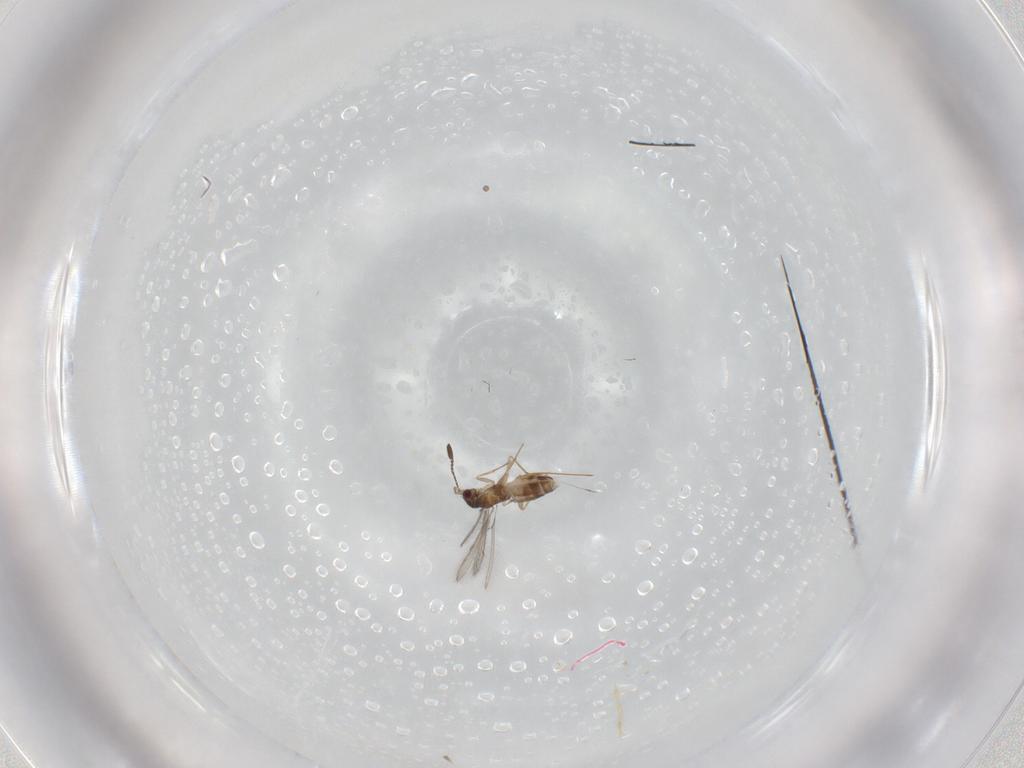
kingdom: Animalia
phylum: Arthropoda
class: Insecta
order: Hymenoptera
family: Mymaridae
